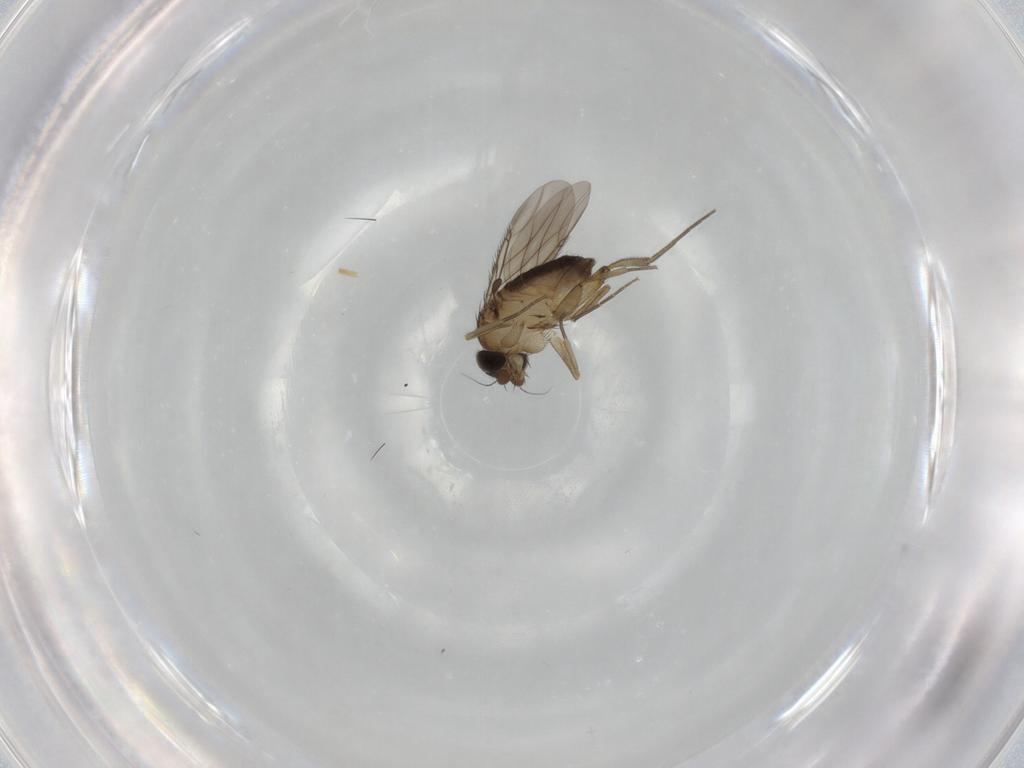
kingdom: Animalia
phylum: Arthropoda
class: Insecta
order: Diptera
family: Phoridae
